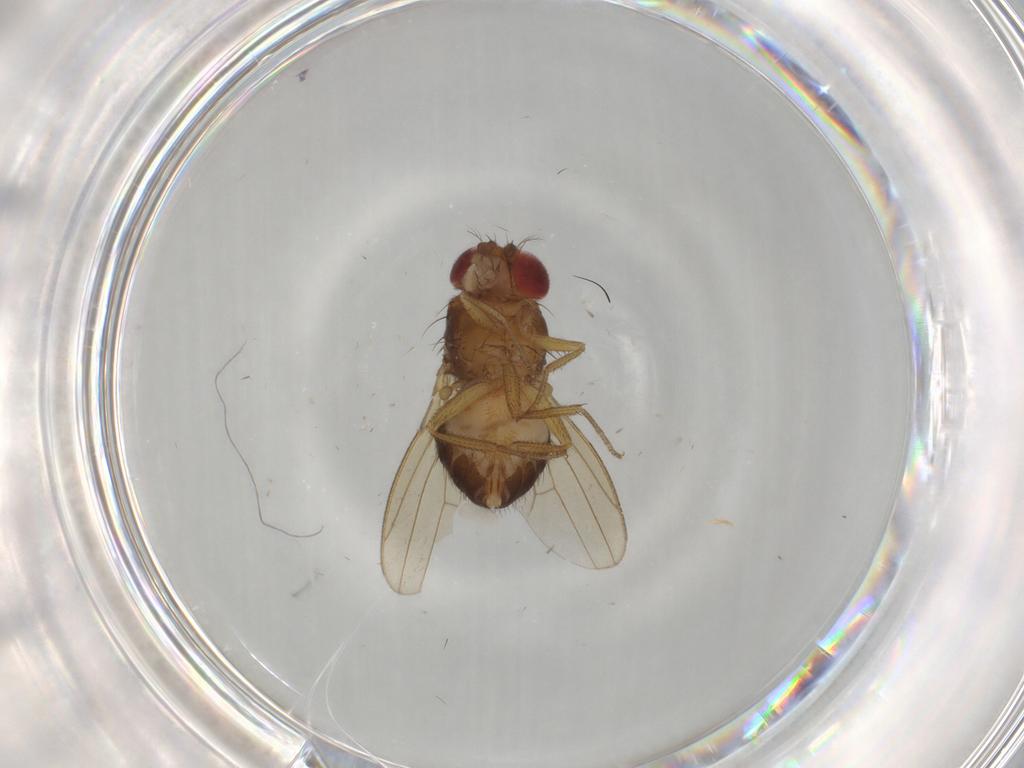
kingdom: Animalia
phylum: Arthropoda
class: Insecta
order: Diptera
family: Drosophilidae
